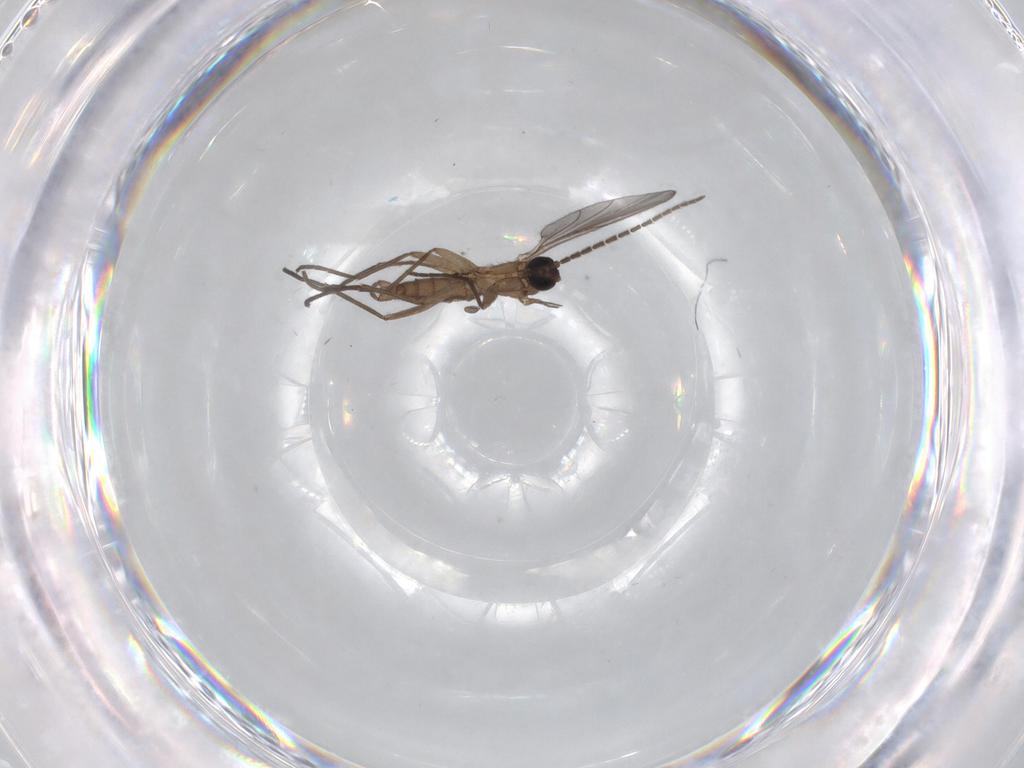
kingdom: Animalia
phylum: Arthropoda
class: Insecta
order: Diptera
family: Sciaridae
